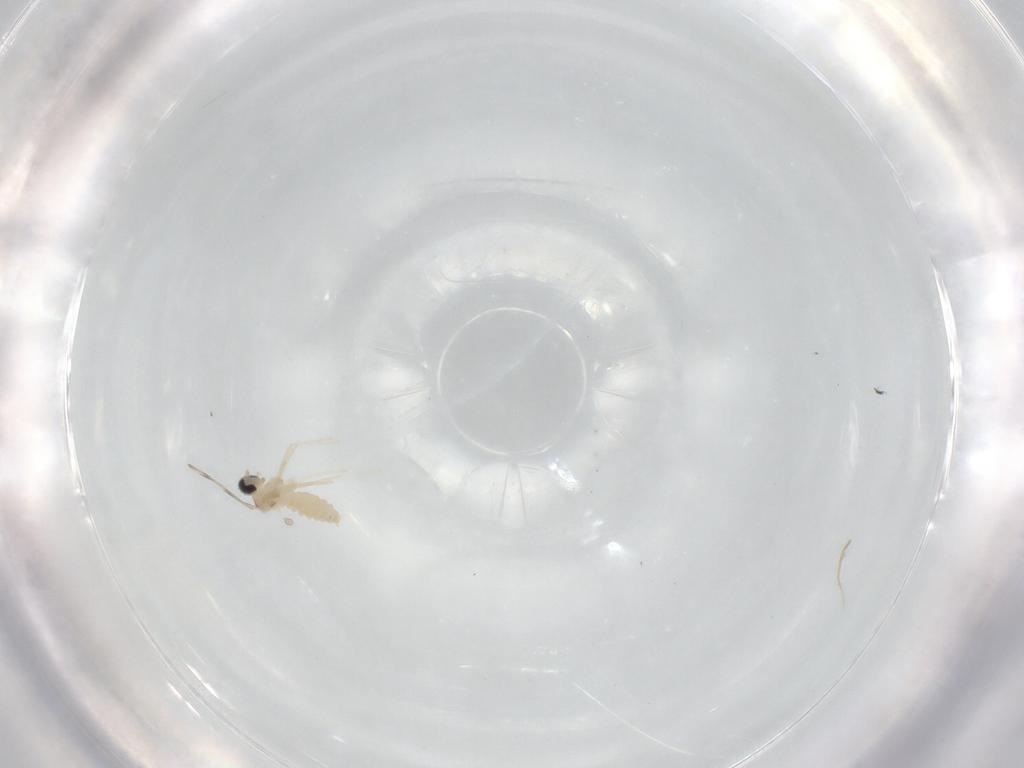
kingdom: Animalia
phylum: Arthropoda
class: Insecta
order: Diptera
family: Cecidomyiidae
